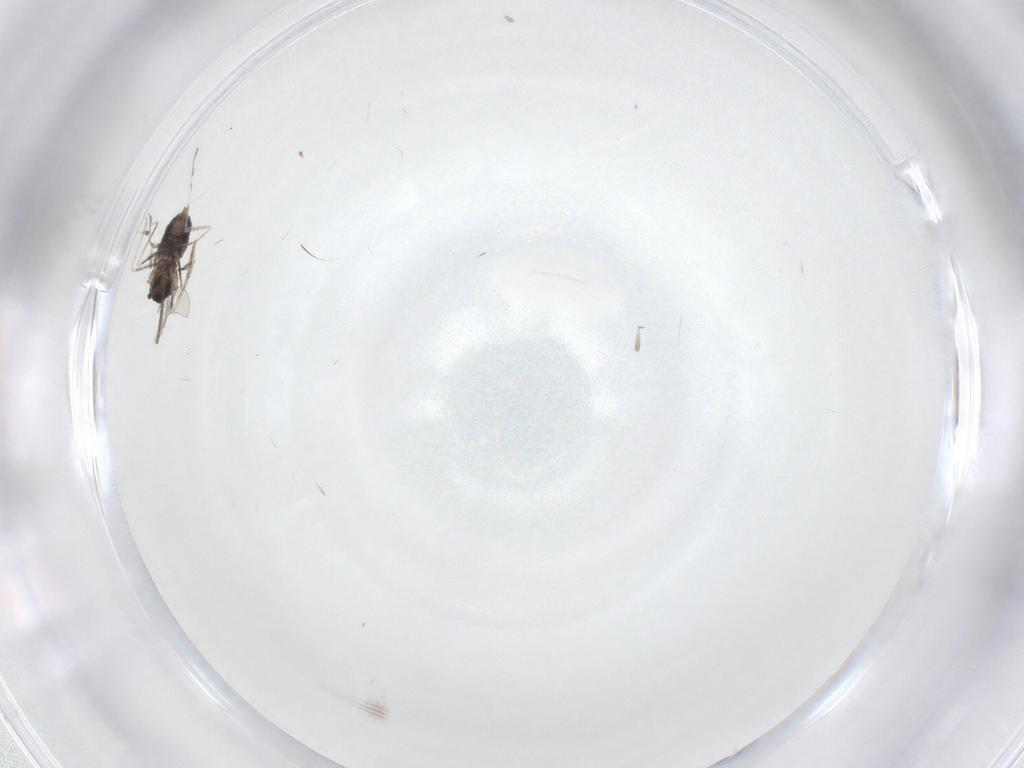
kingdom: Animalia
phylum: Arthropoda
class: Insecta
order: Diptera
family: Cecidomyiidae
